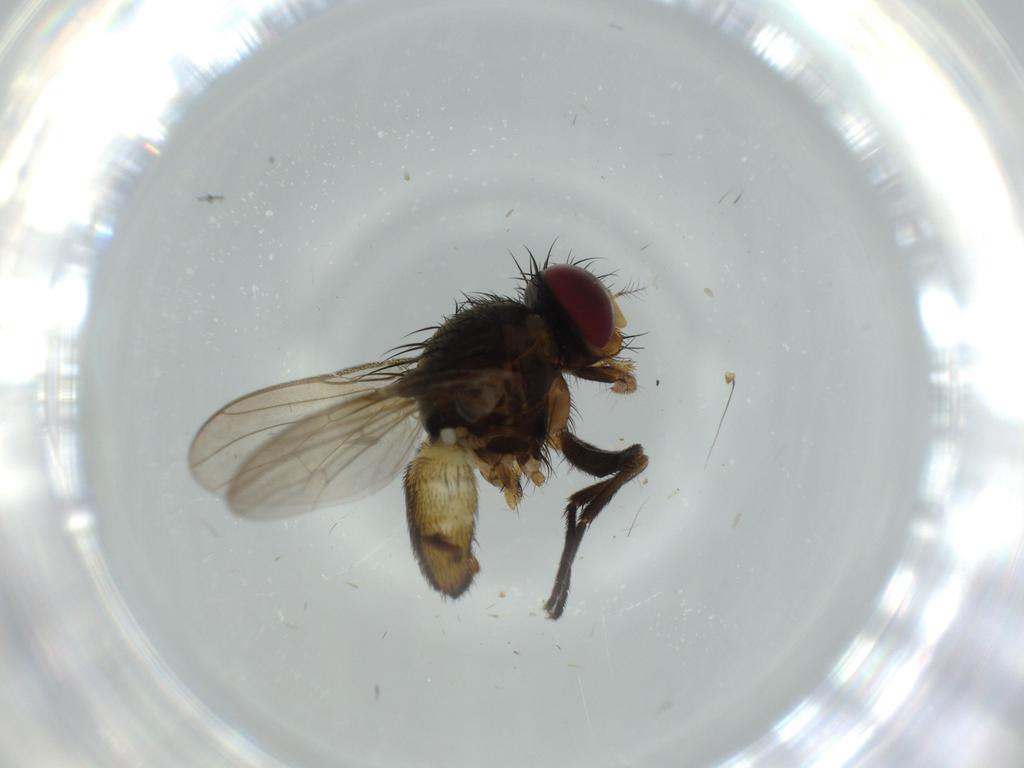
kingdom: Animalia
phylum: Arthropoda
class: Insecta
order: Diptera
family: Anthomyiidae
